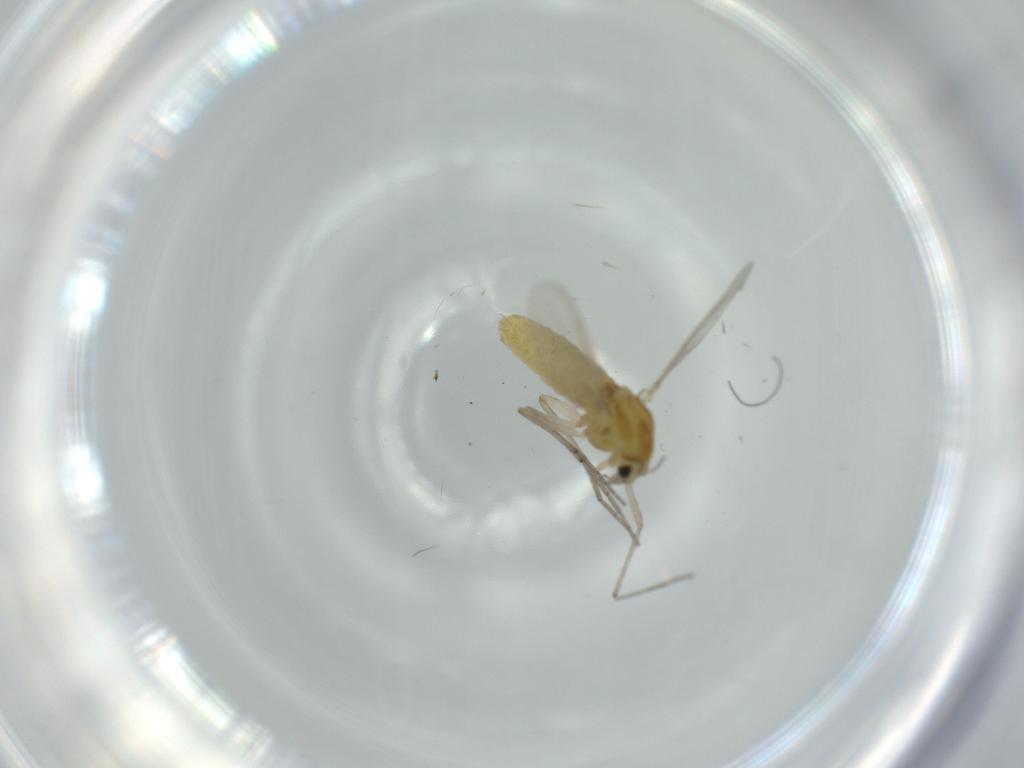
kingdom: Animalia
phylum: Arthropoda
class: Insecta
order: Diptera
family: Chironomidae
